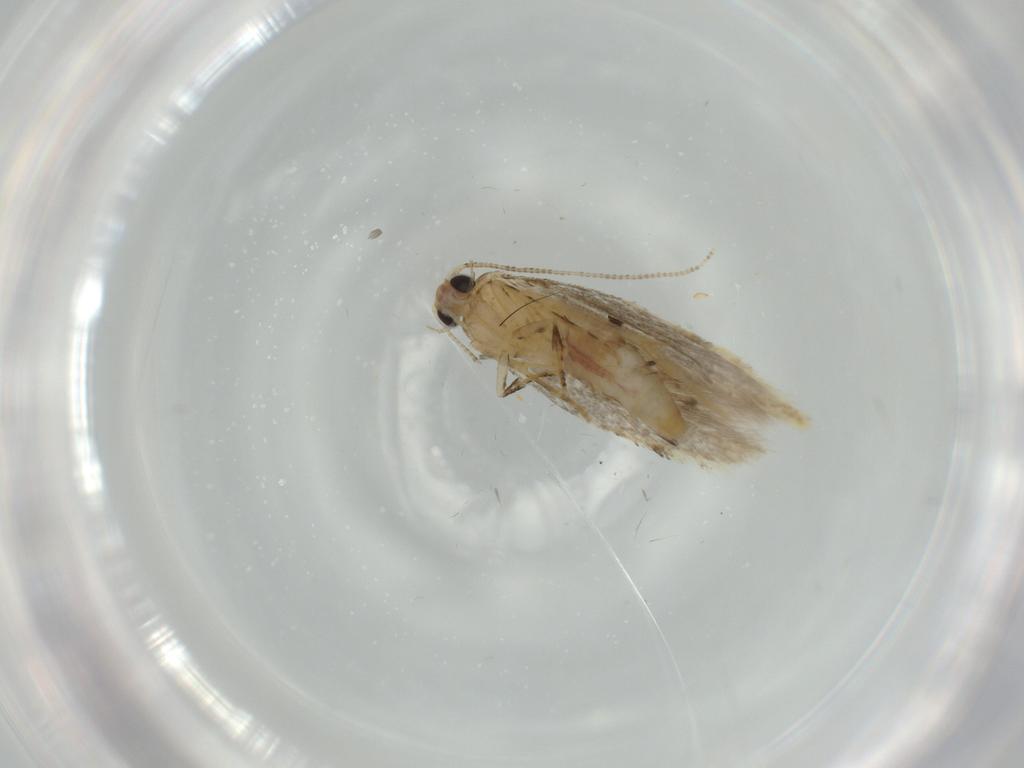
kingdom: Animalia
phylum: Arthropoda
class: Insecta
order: Lepidoptera
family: Tineidae
